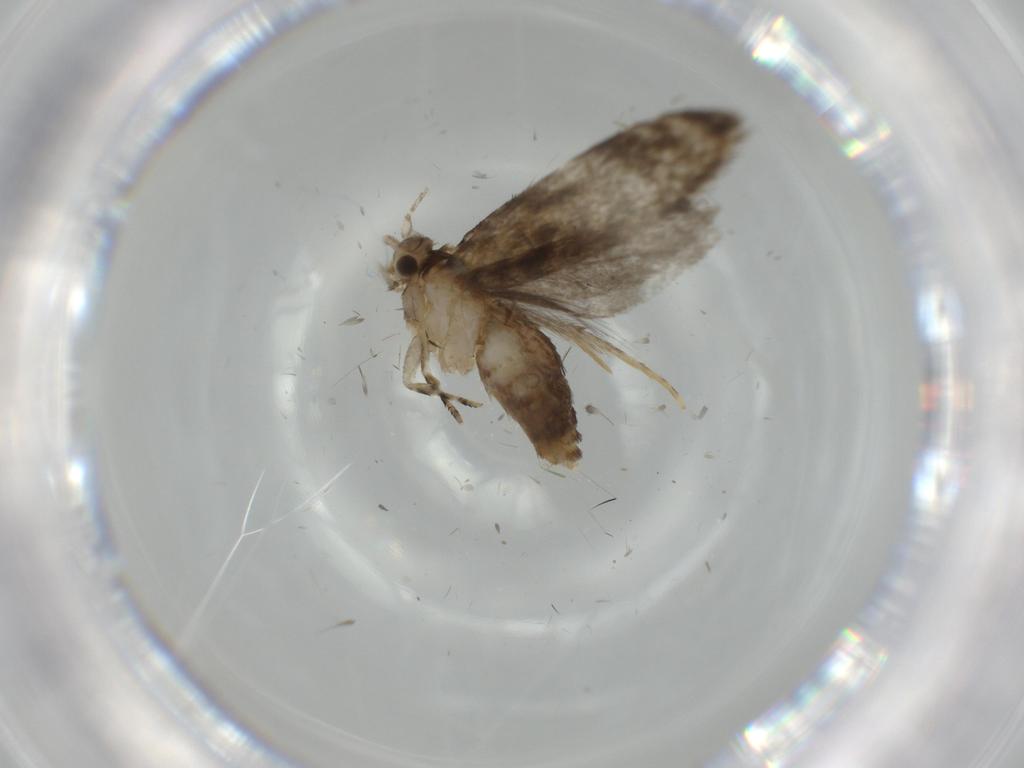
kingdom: Animalia
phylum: Arthropoda
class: Insecta
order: Lepidoptera
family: Tineidae
